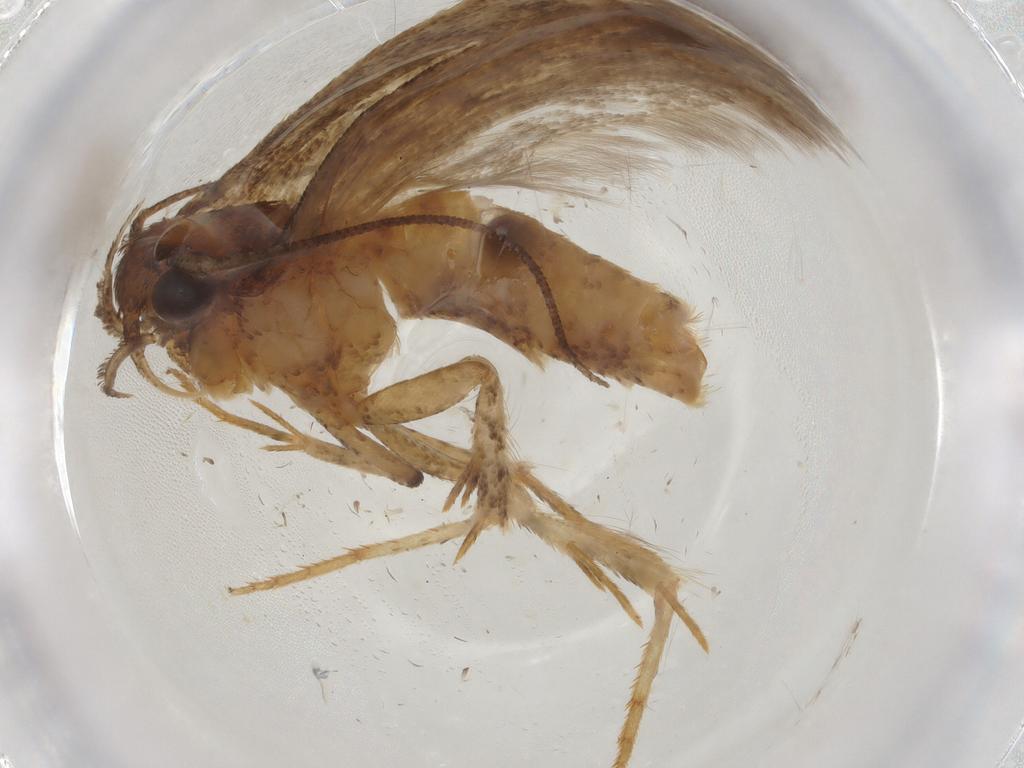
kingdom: Animalia
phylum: Arthropoda
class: Insecta
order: Lepidoptera
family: Gelechiidae
